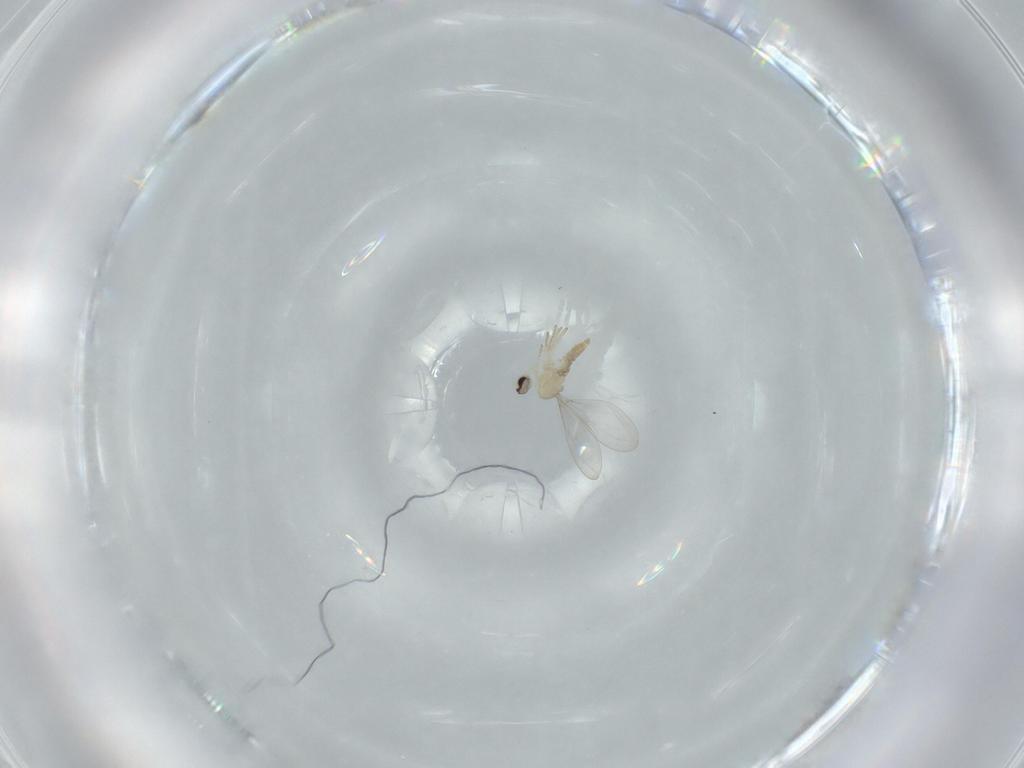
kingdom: Animalia
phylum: Arthropoda
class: Insecta
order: Diptera
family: Cecidomyiidae
